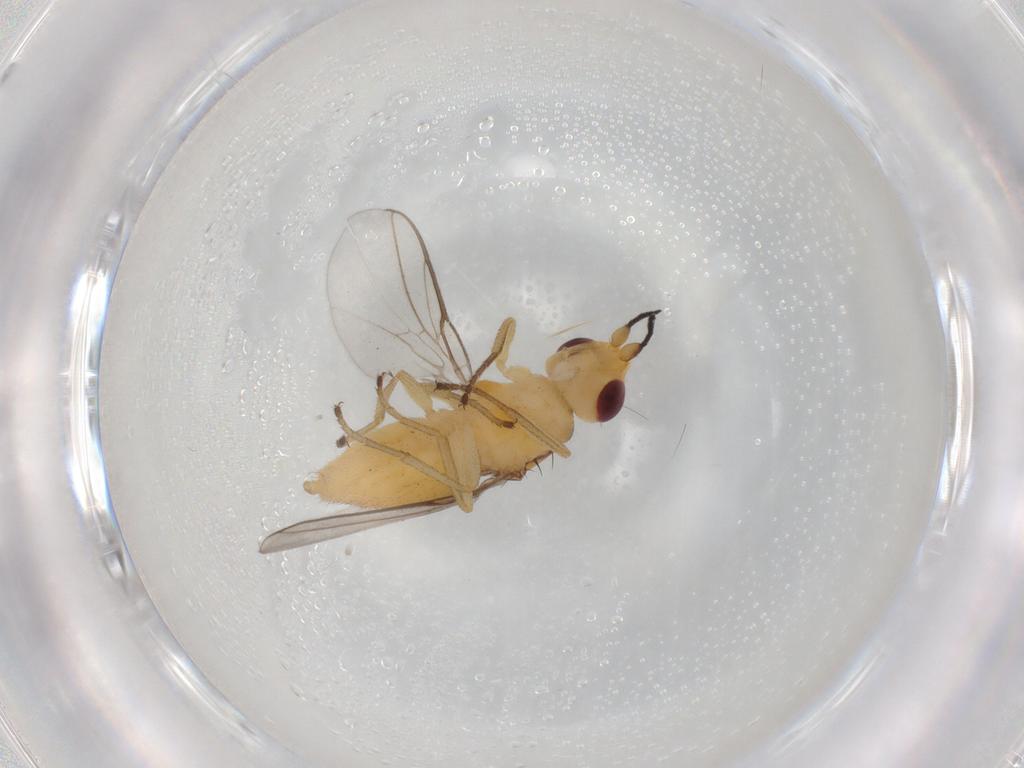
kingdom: Animalia
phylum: Arthropoda
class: Insecta
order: Diptera
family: Chloropidae
